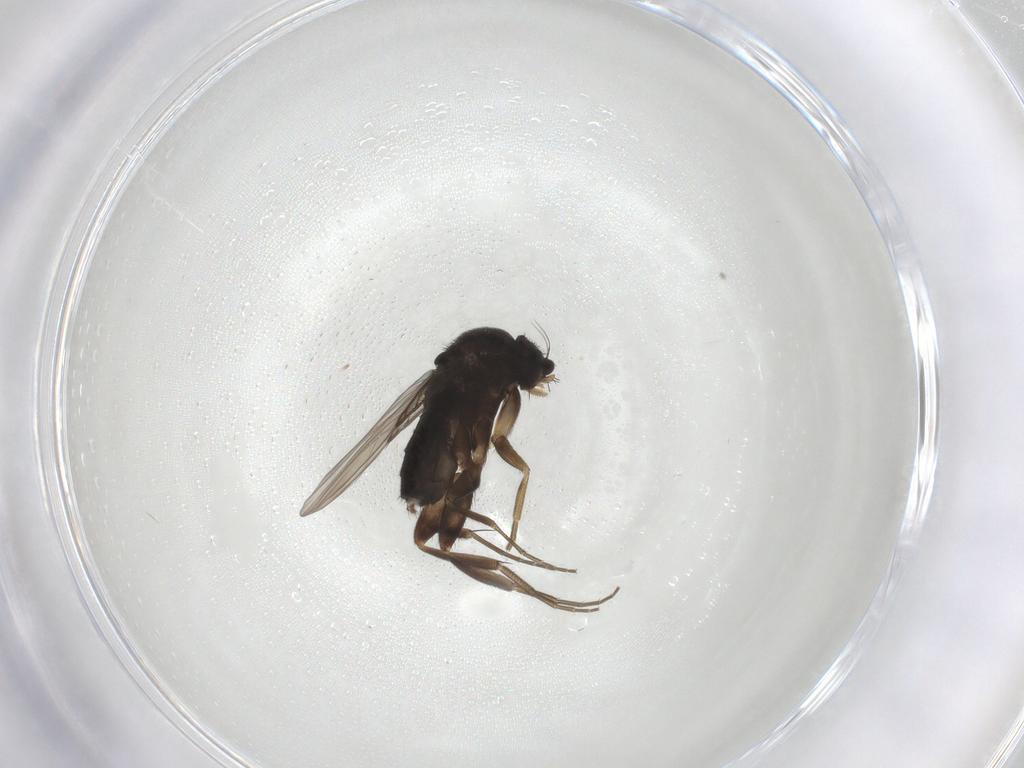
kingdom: Animalia
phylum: Arthropoda
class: Insecta
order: Diptera
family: Phoridae
